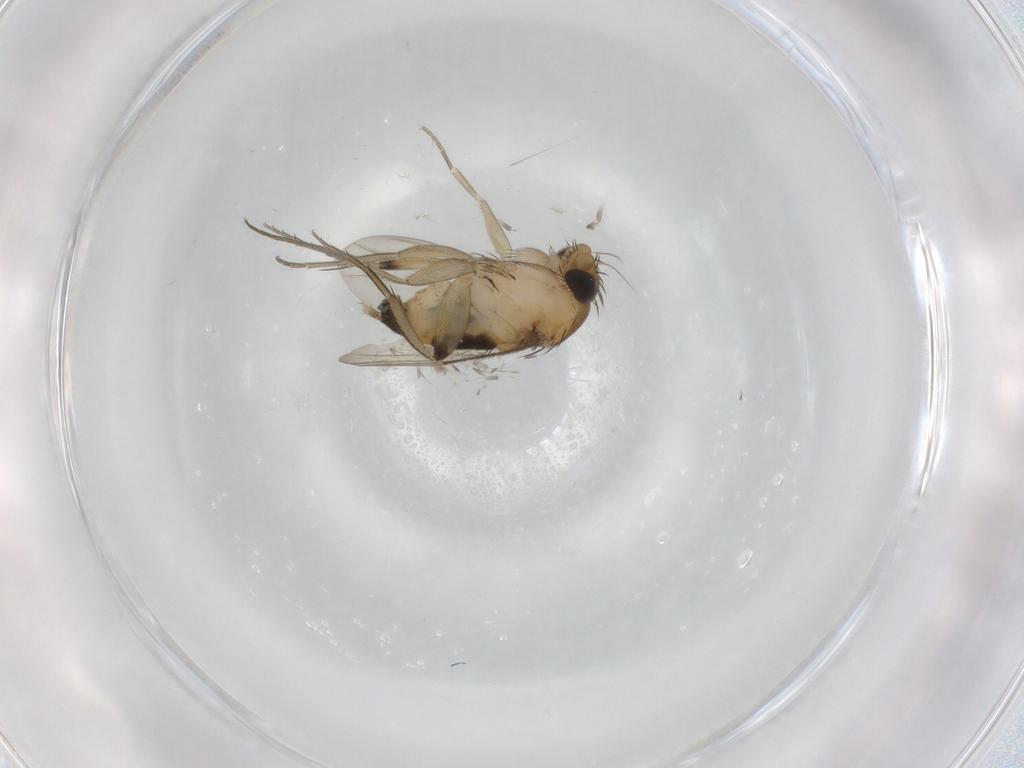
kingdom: Animalia
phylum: Arthropoda
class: Insecta
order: Diptera
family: Phoridae
